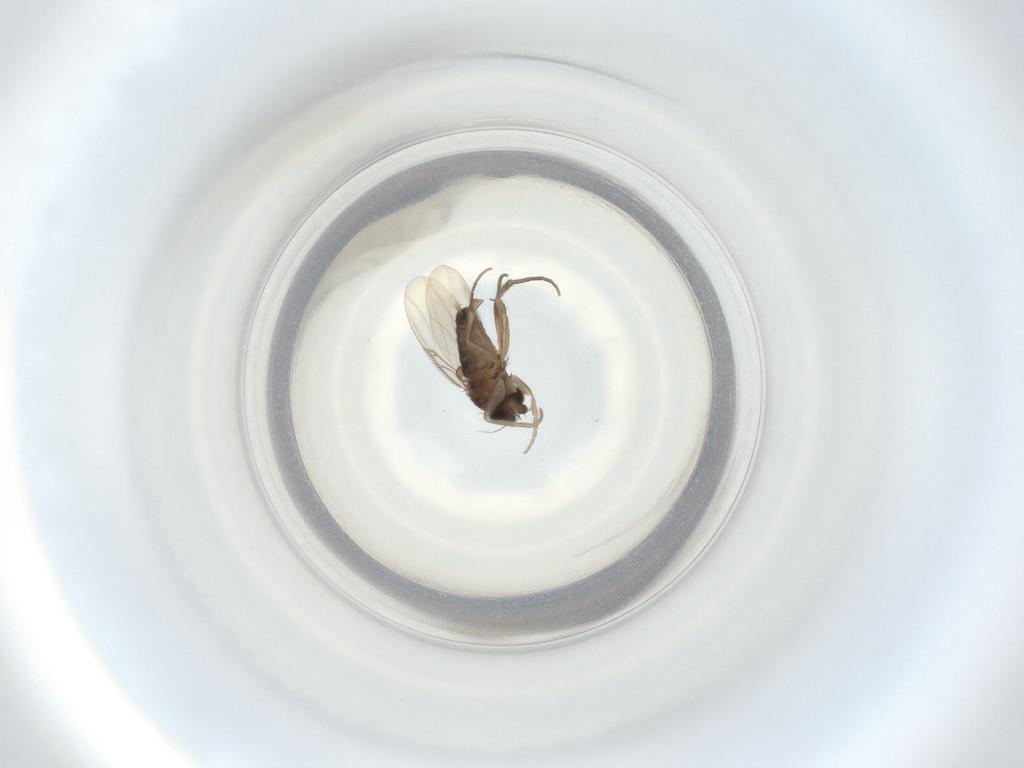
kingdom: Animalia
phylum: Arthropoda
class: Insecta
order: Diptera
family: Phoridae
